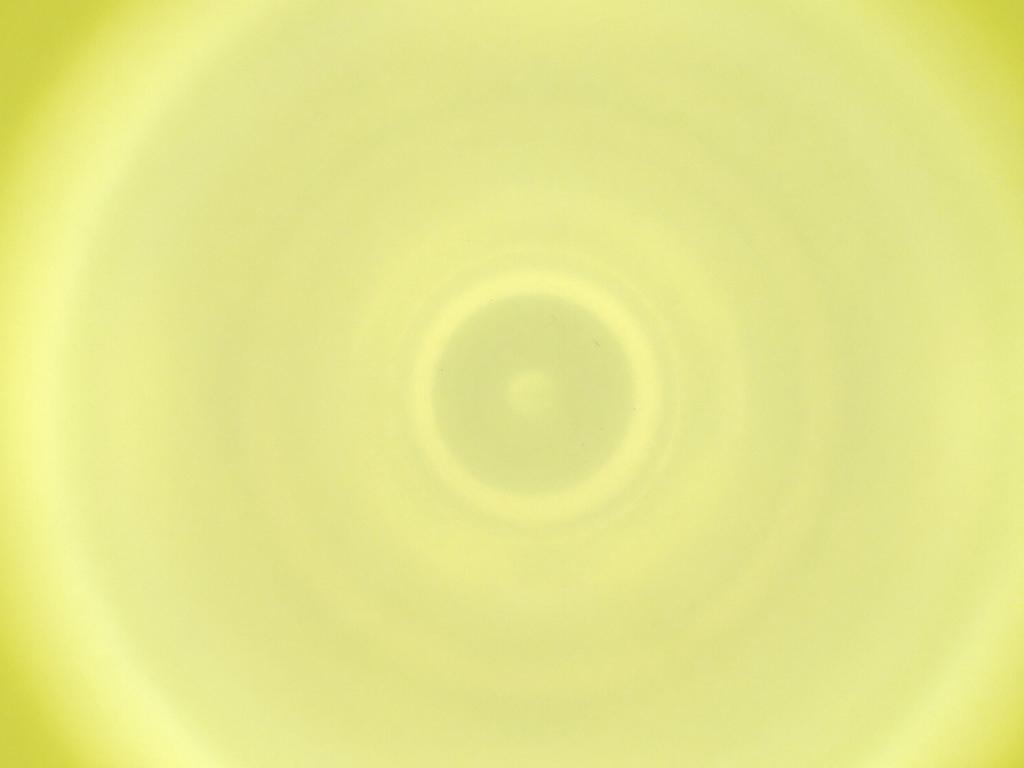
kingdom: Animalia
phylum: Arthropoda
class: Insecta
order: Diptera
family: Cecidomyiidae
